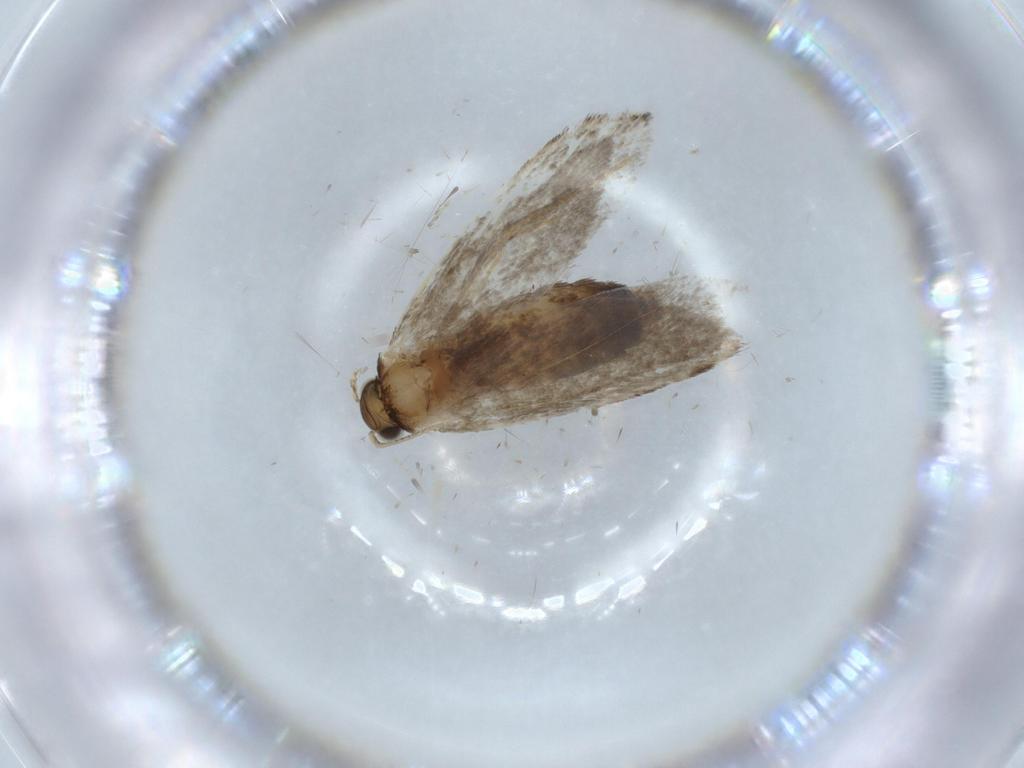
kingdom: Animalia
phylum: Arthropoda
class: Insecta
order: Lepidoptera
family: Tineidae
